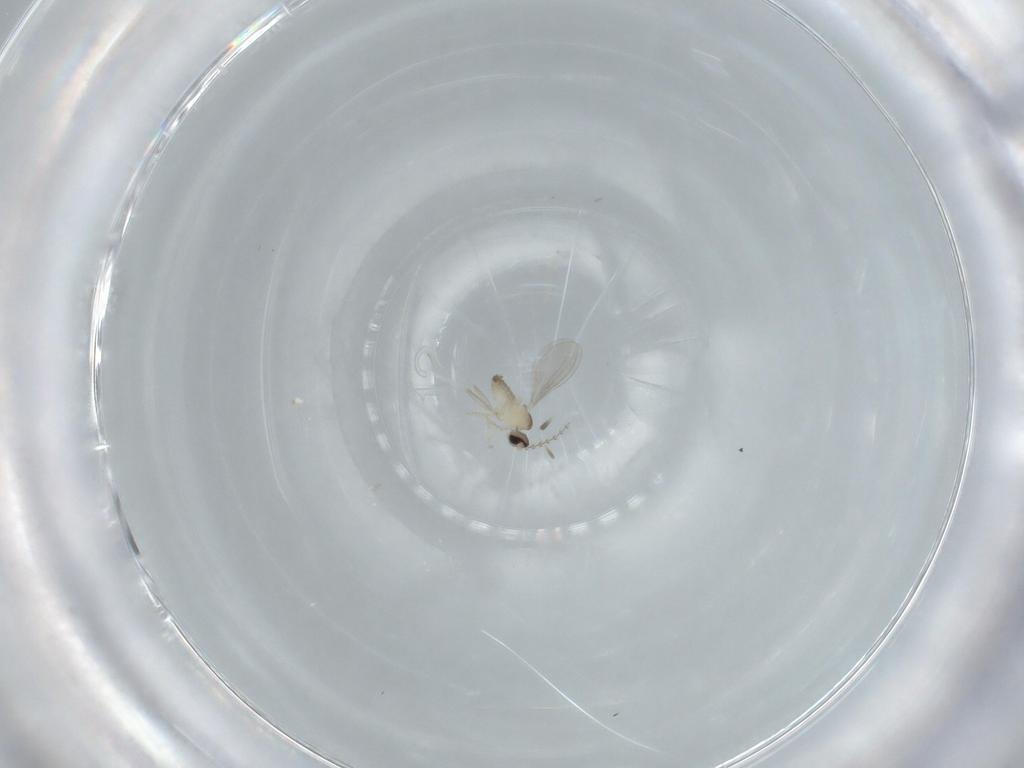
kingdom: Animalia
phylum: Arthropoda
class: Insecta
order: Diptera
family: Cecidomyiidae
